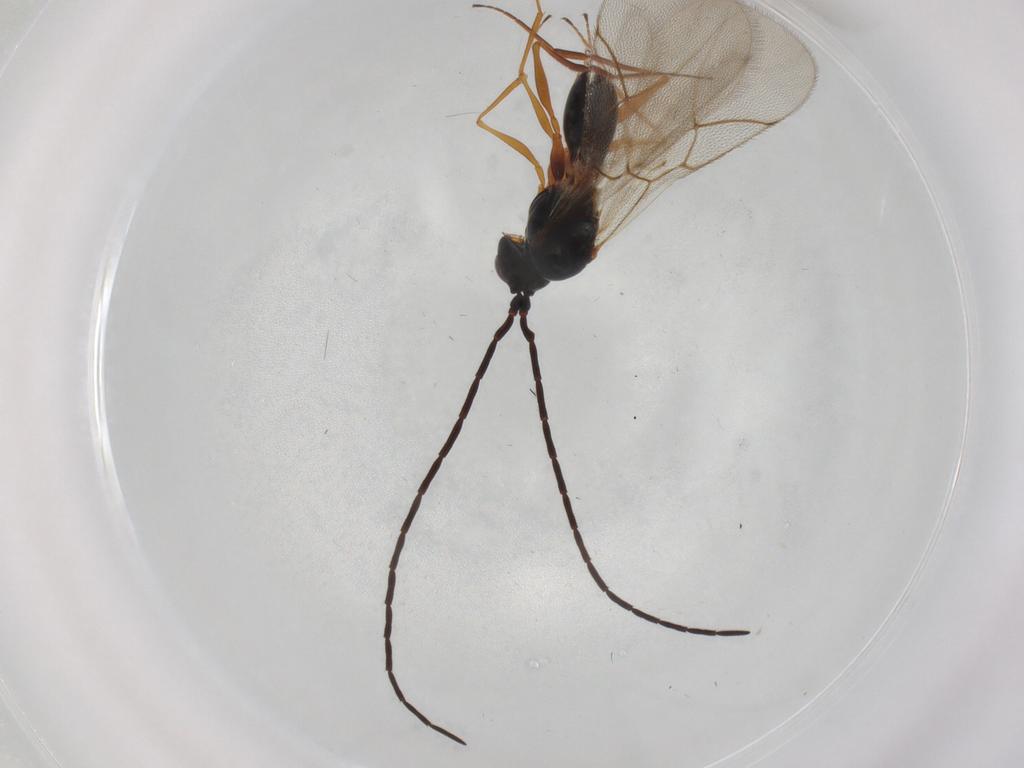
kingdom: Animalia
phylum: Arthropoda
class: Insecta
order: Hymenoptera
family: Figitidae
